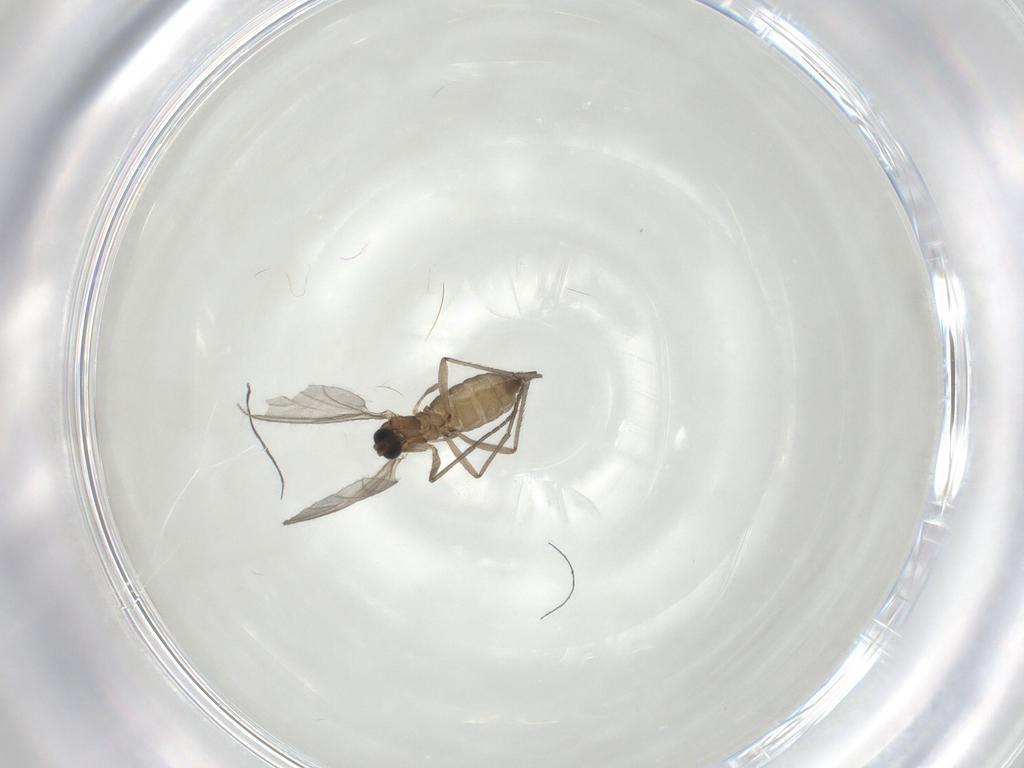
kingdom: Animalia
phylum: Arthropoda
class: Insecta
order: Diptera
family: Sciaridae
